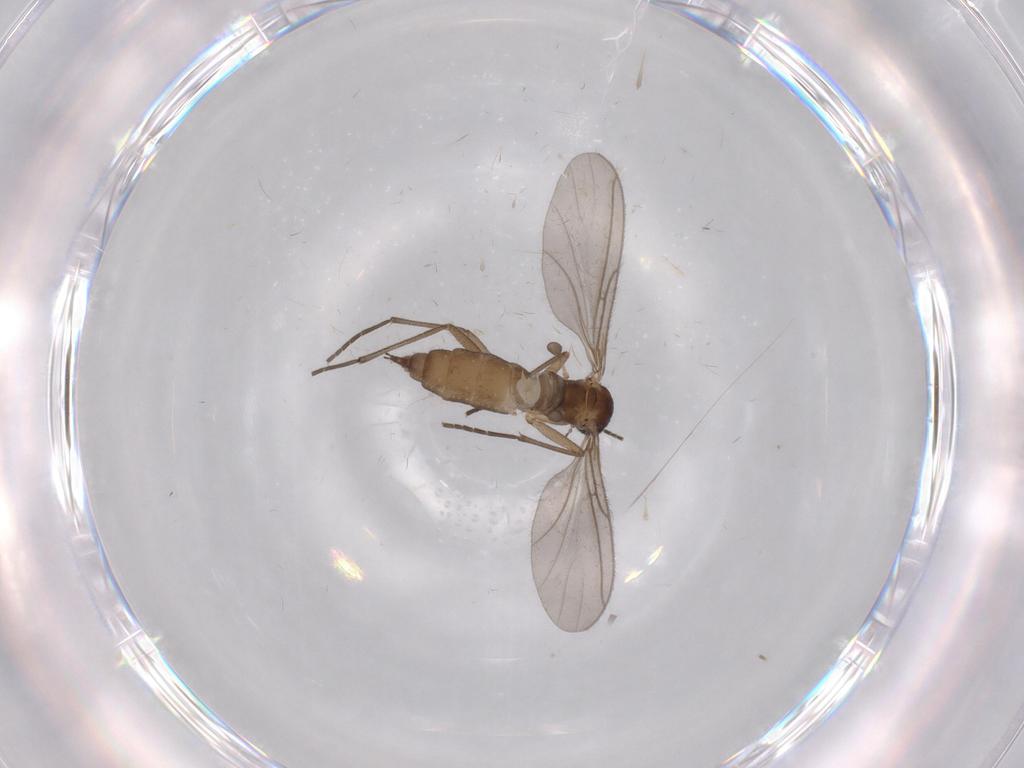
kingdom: Animalia
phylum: Arthropoda
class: Insecta
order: Diptera
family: Sciaridae
